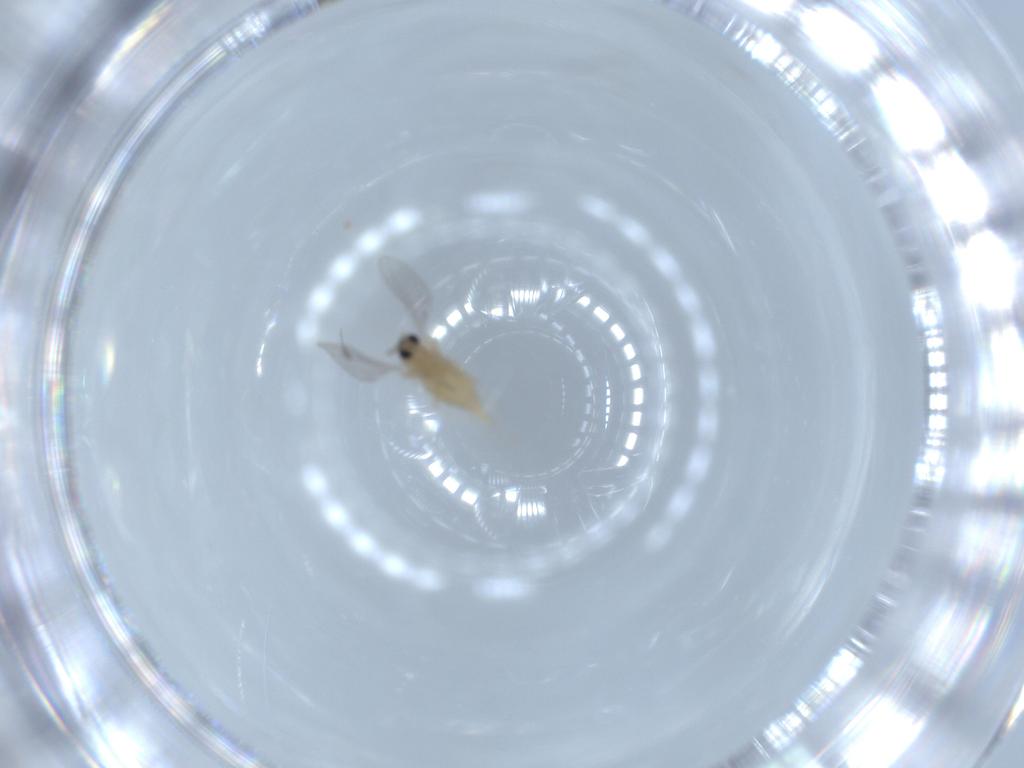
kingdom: Animalia
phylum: Arthropoda
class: Insecta
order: Diptera
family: Cecidomyiidae
